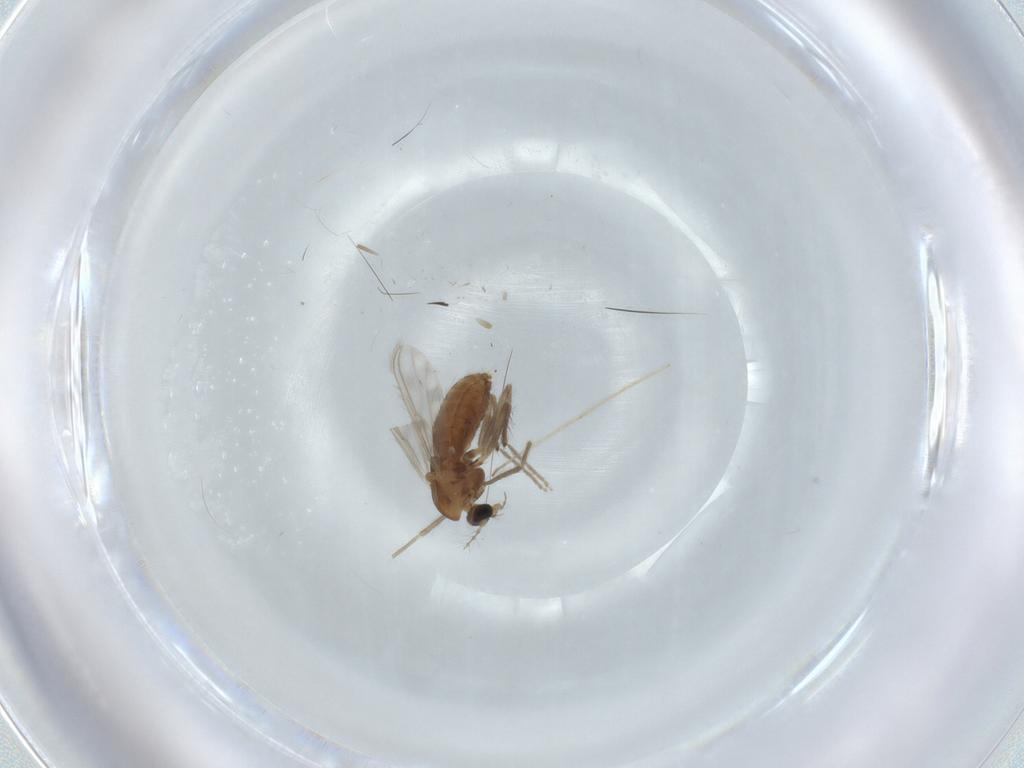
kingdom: Animalia
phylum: Arthropoda
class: Insecta
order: Diptera
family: Chironomidae
